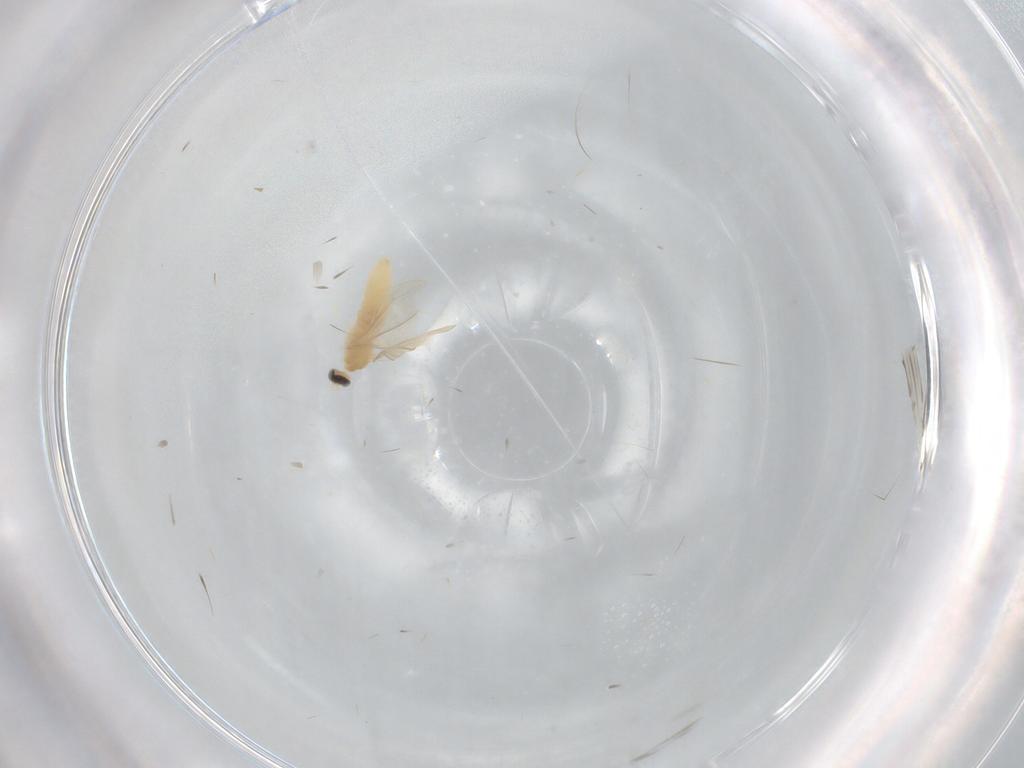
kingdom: Animalia
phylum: Arthropoda
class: Insecta
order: Diptera
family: Cecidomyiidae
